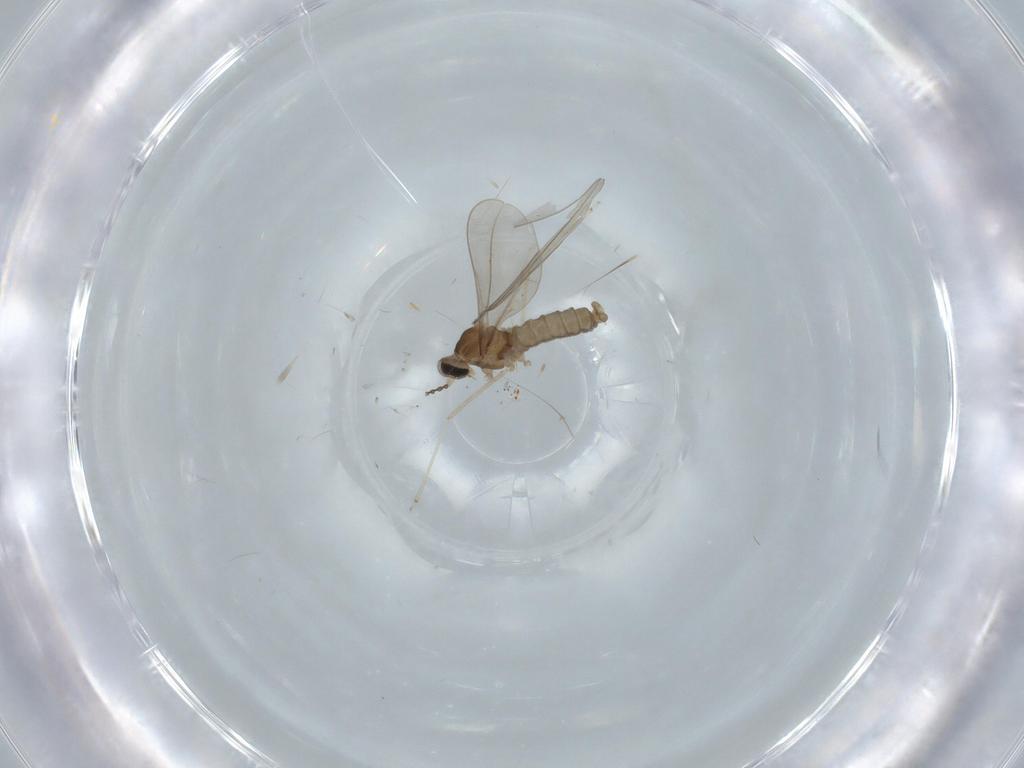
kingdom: Animalia
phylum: Arthropoda
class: Insecta
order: Diptera
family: Cecidomyiidae
